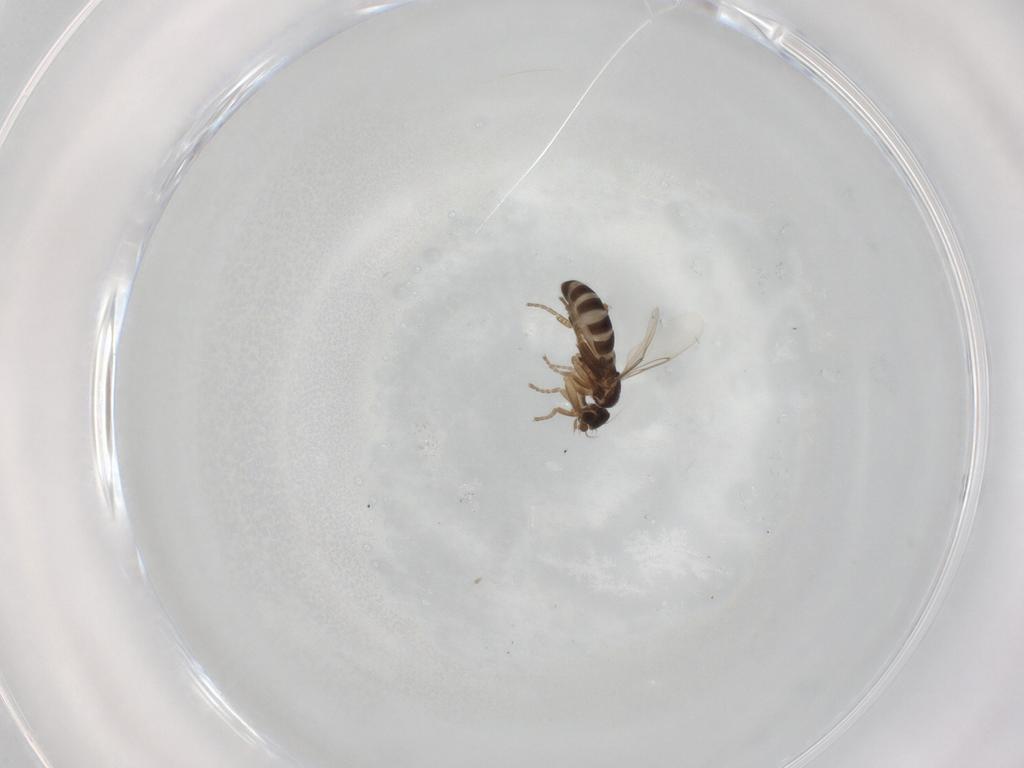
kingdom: Animalia
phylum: Arthropoda
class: Insecta
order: Diptera
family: Phoridae
